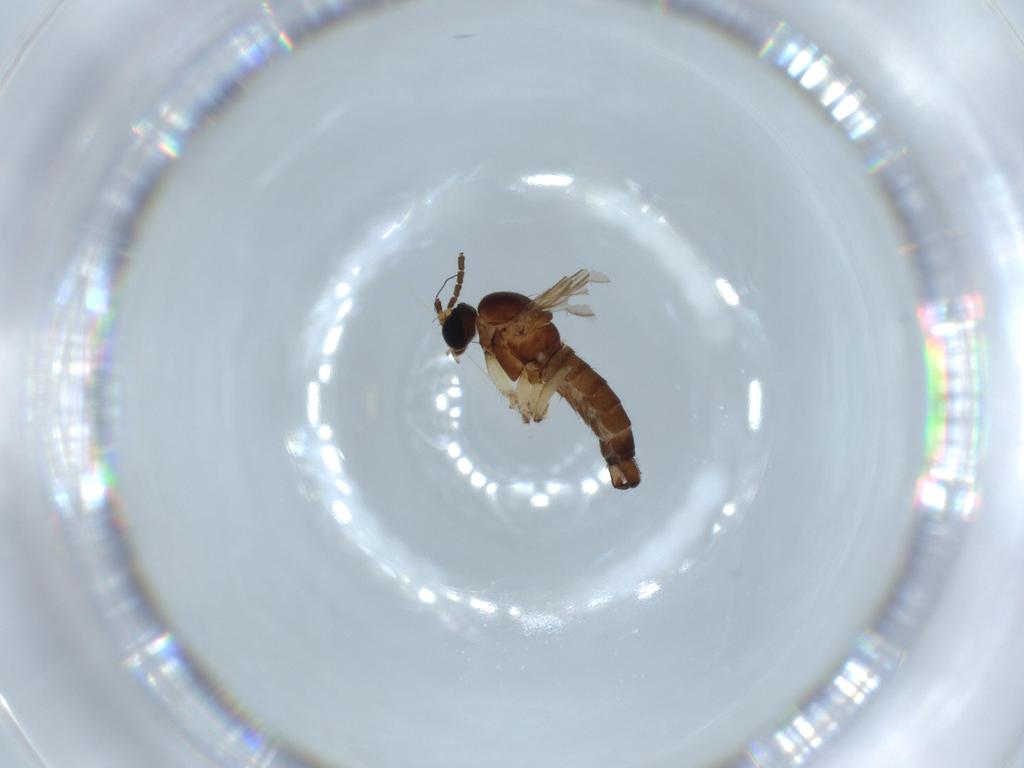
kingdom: Animalia
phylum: Arthropoda
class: Insecta
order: Diptera
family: Sciaridae
